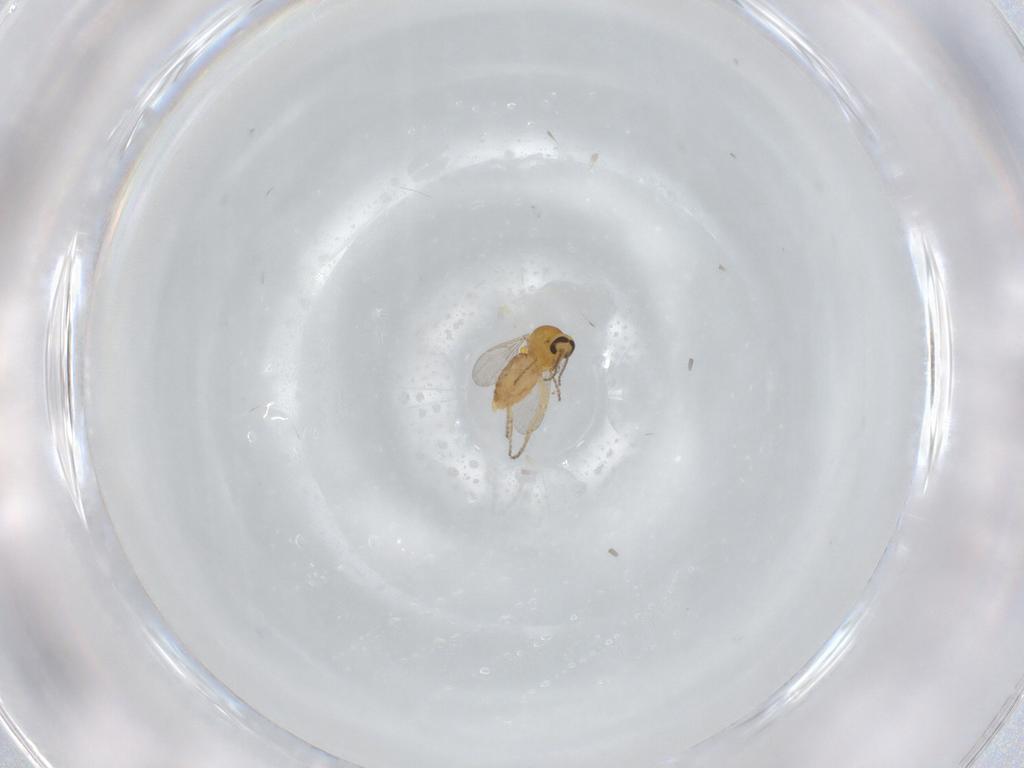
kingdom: Animalia
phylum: Arthropoda
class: Insecta
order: Diptera
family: Ceratopogonidae
